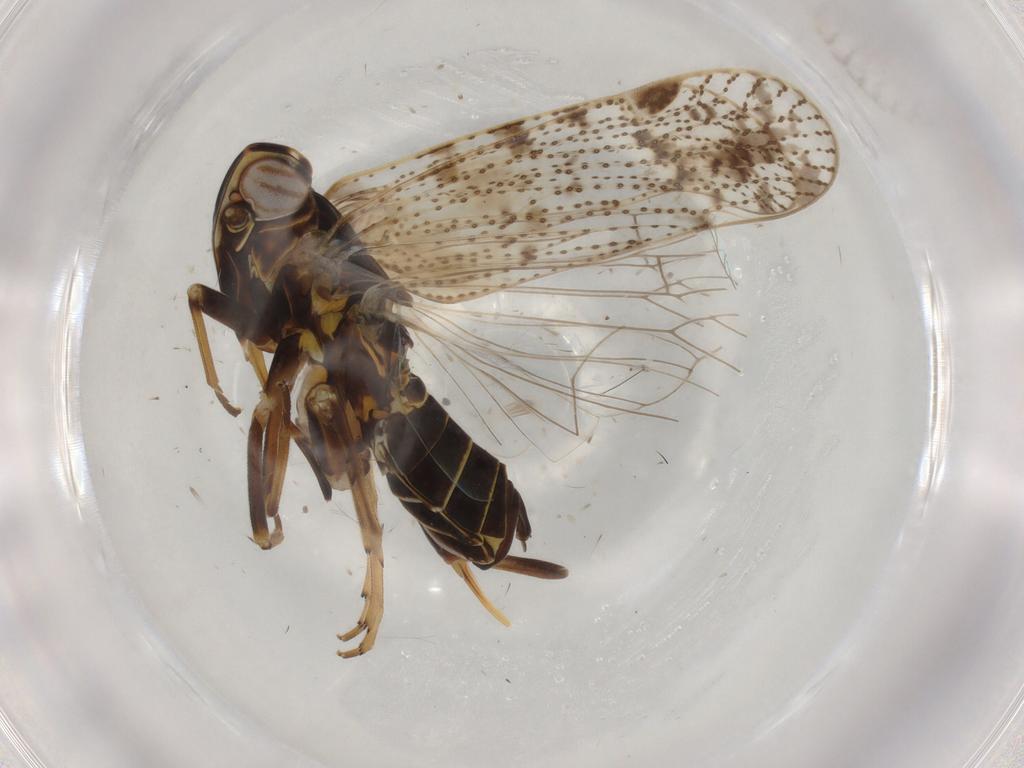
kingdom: Animalia
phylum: Arthropoda
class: Insecta
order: Hemiptera
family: Cixiidae
